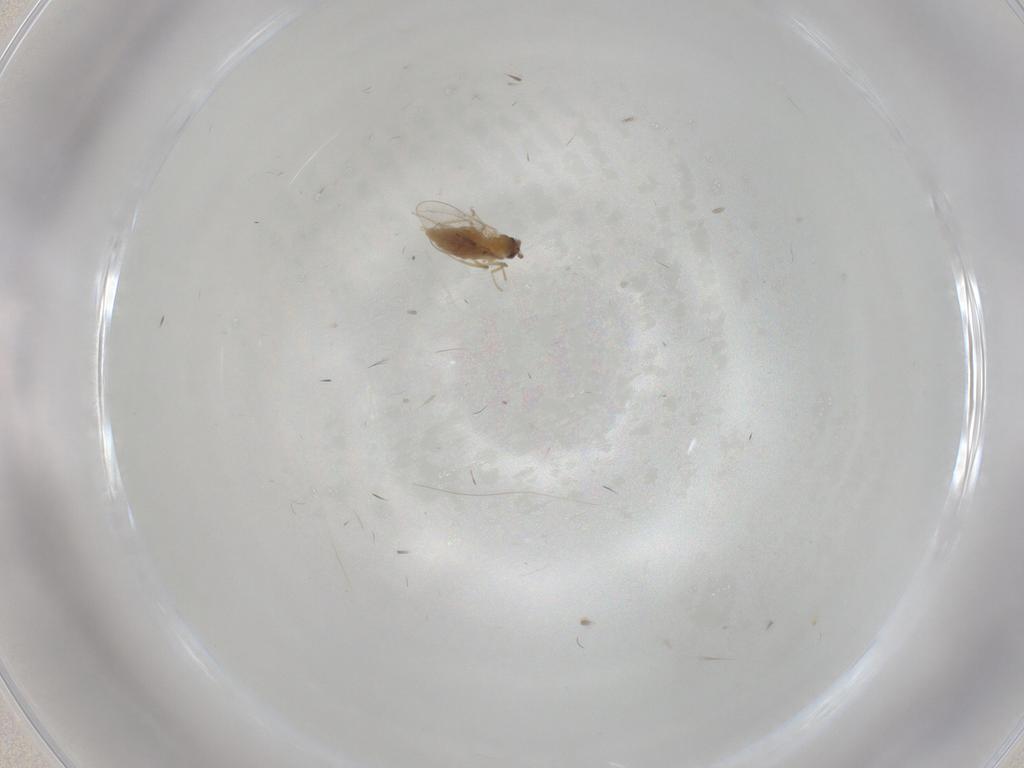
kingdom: Animalia
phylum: Arthropoda
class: Insecta
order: Diptera
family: Cecidomyiidae
